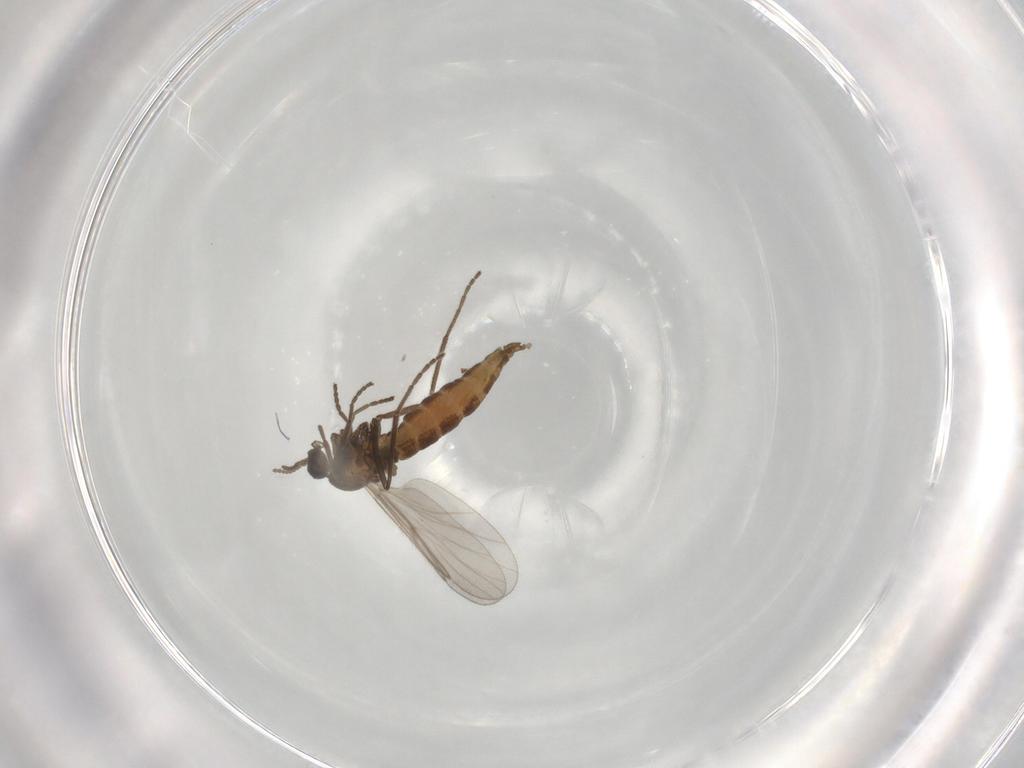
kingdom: Animalia
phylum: Arthropoda
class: Insecta
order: Diptera
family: Cecidomyiidae
